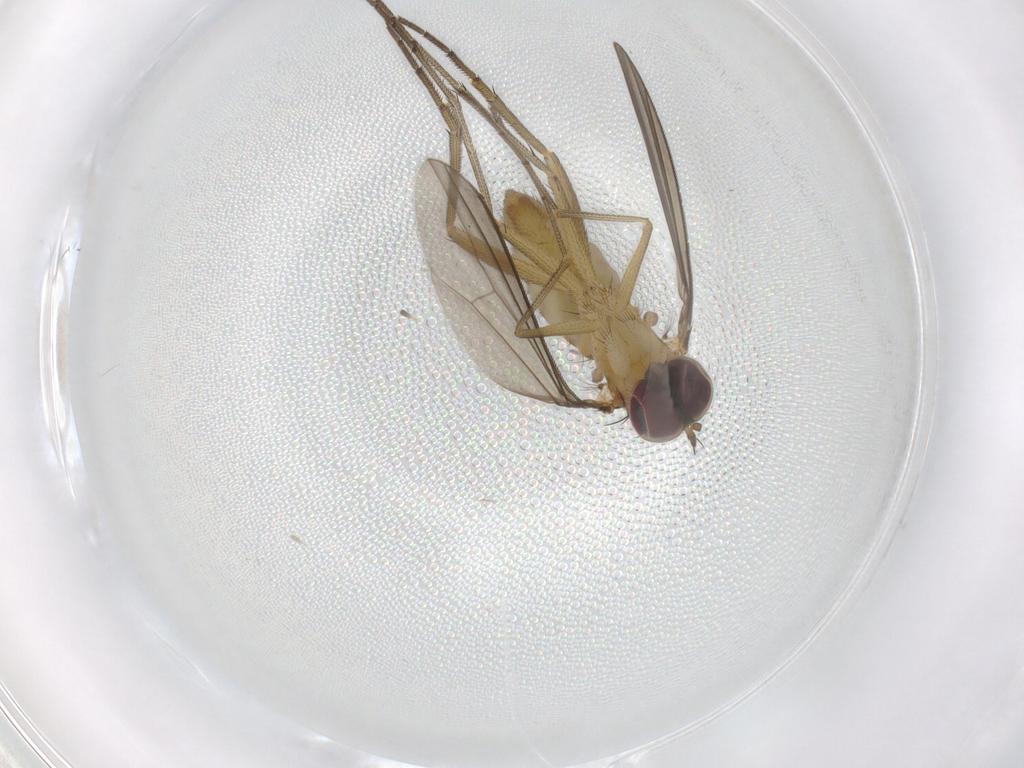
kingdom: Animalia
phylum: Arthropoda
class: Insecta
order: Diptera
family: Dolichopodidae
